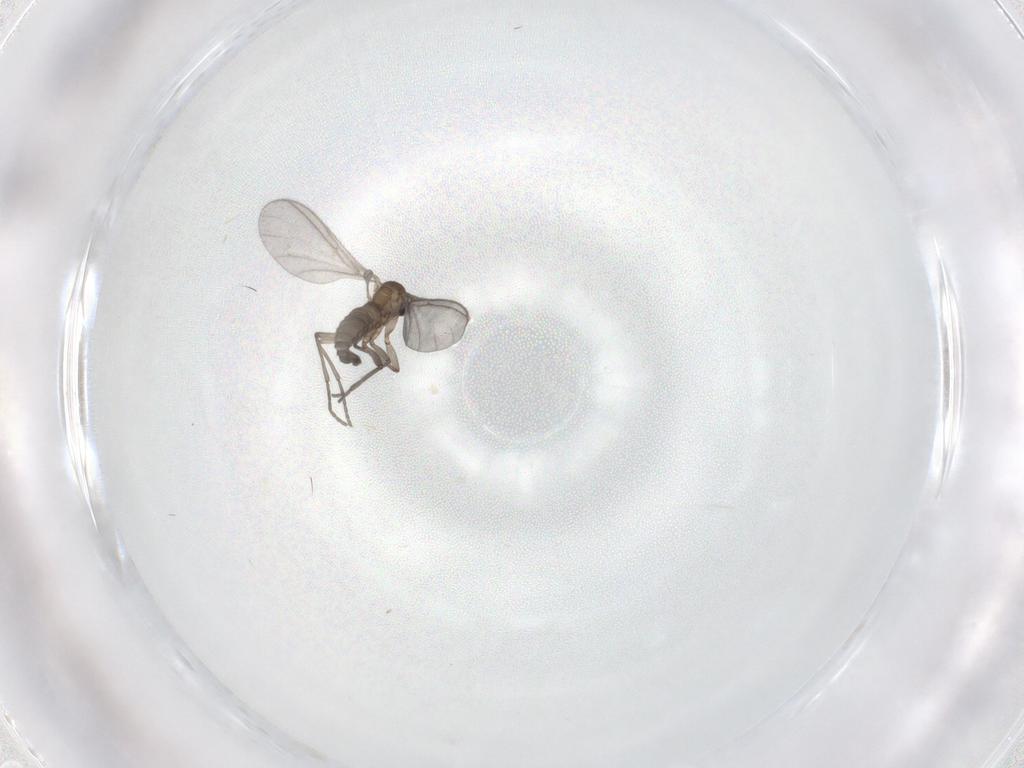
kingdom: Animalia
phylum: Arthropoda
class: Insecta
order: Diptera
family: Sciaridae
